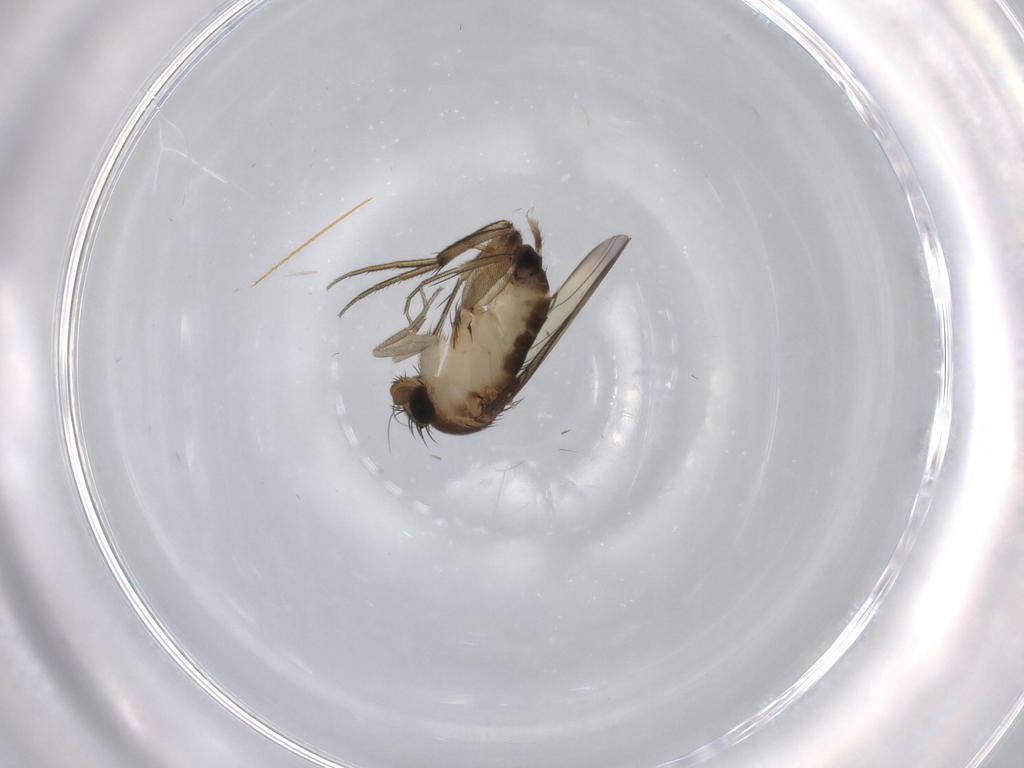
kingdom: Animalia
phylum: Arthropoda
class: Insecta
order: Diptera
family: Phoridae
